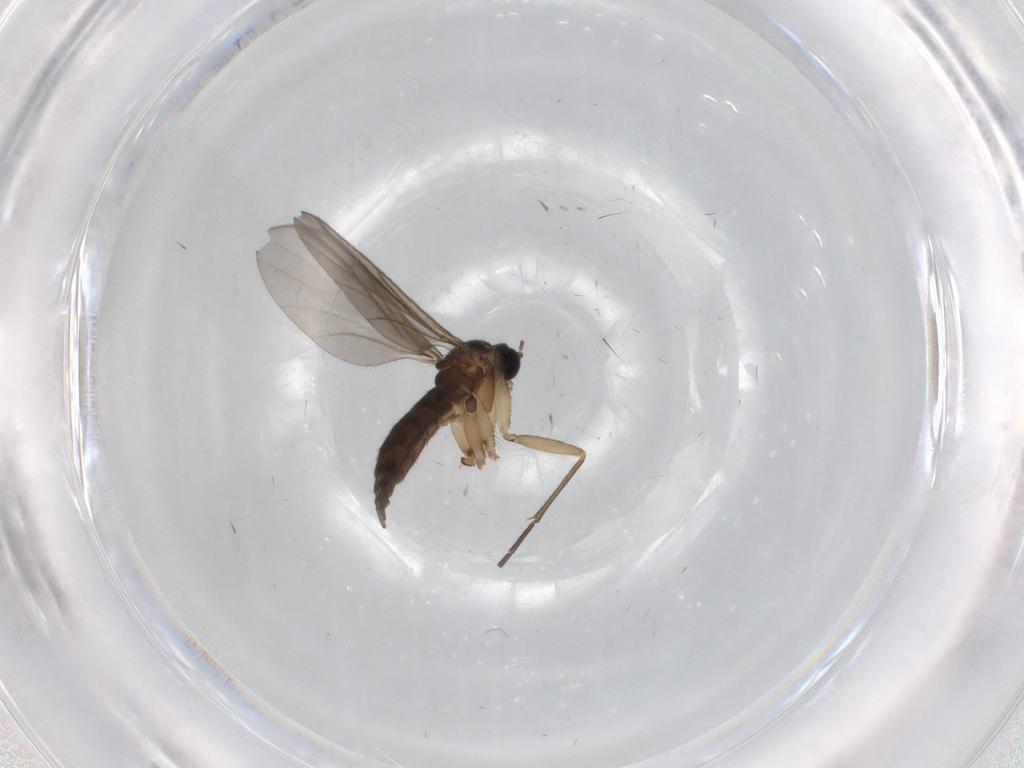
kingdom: Animalia
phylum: Arthropoda
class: Insecta
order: Diptera
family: Sciaridae
